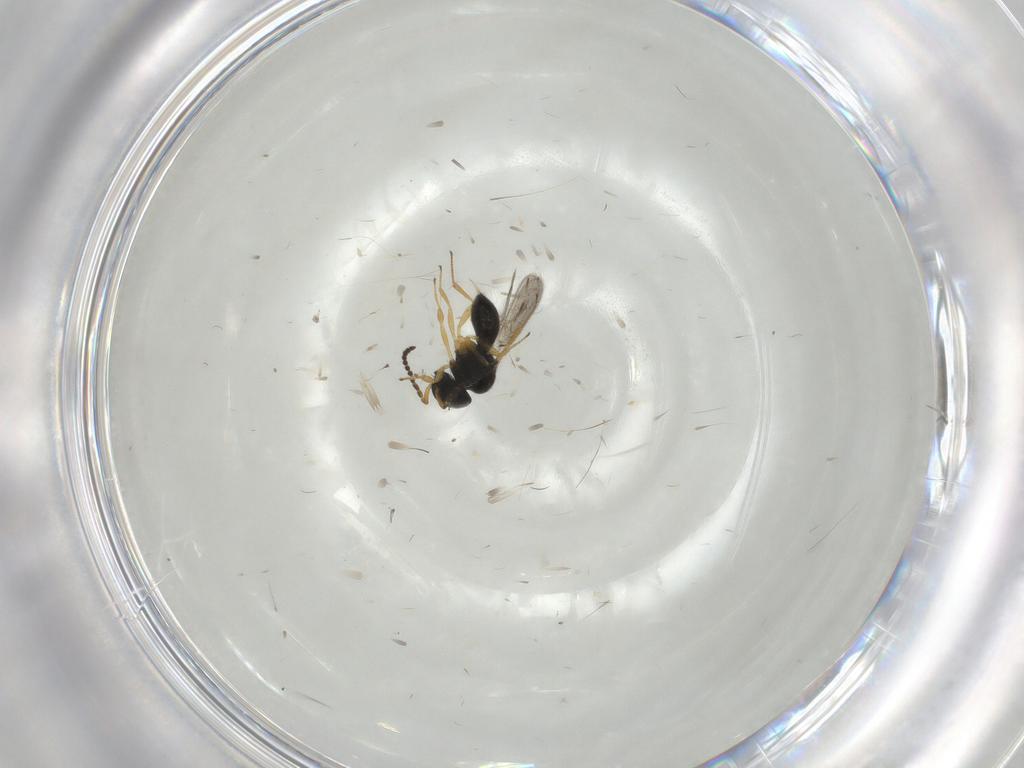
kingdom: Animalia
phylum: Arthropoda
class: Insecta
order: Hymenoptera
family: Scelionidae
